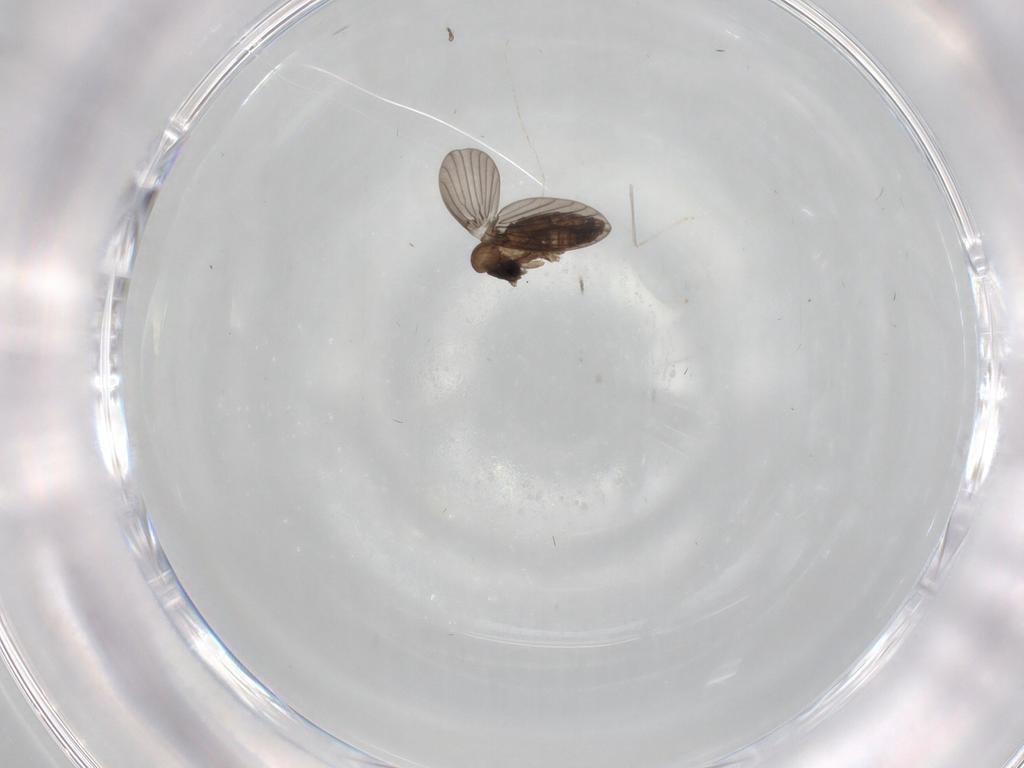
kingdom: Animalia
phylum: Arthropoda
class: Insecta
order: Diptera
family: Cecidomyiidae
